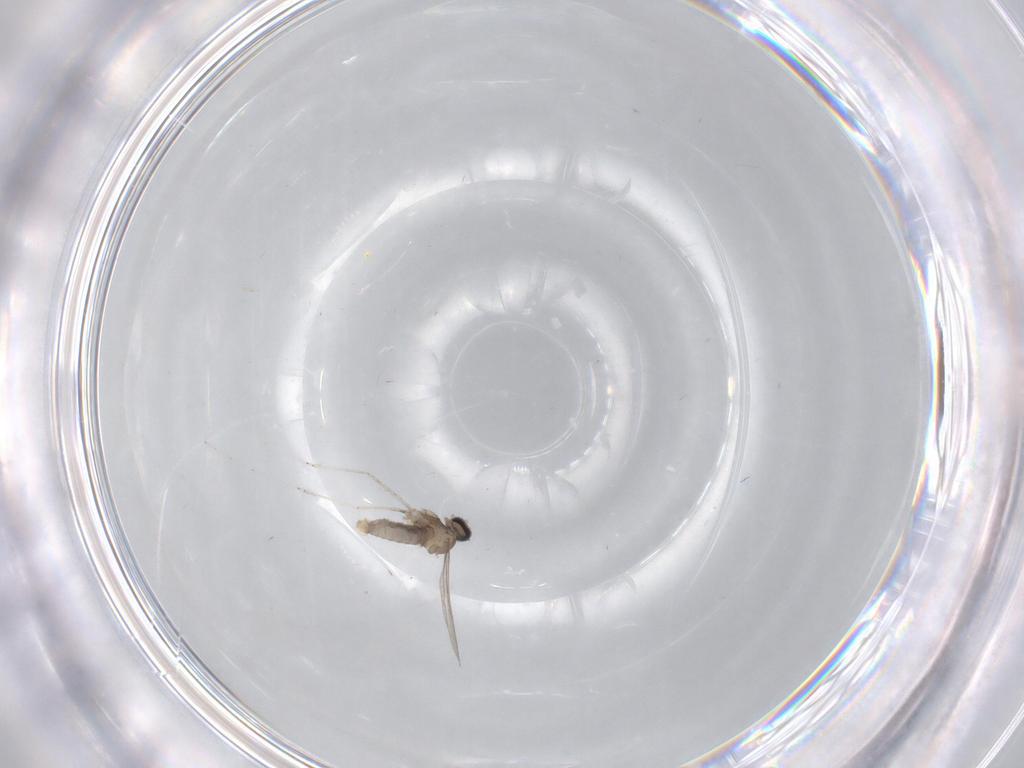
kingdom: Animalia
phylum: Arthropoda
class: Insecta
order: Diptera
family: Cecidomyiidae
